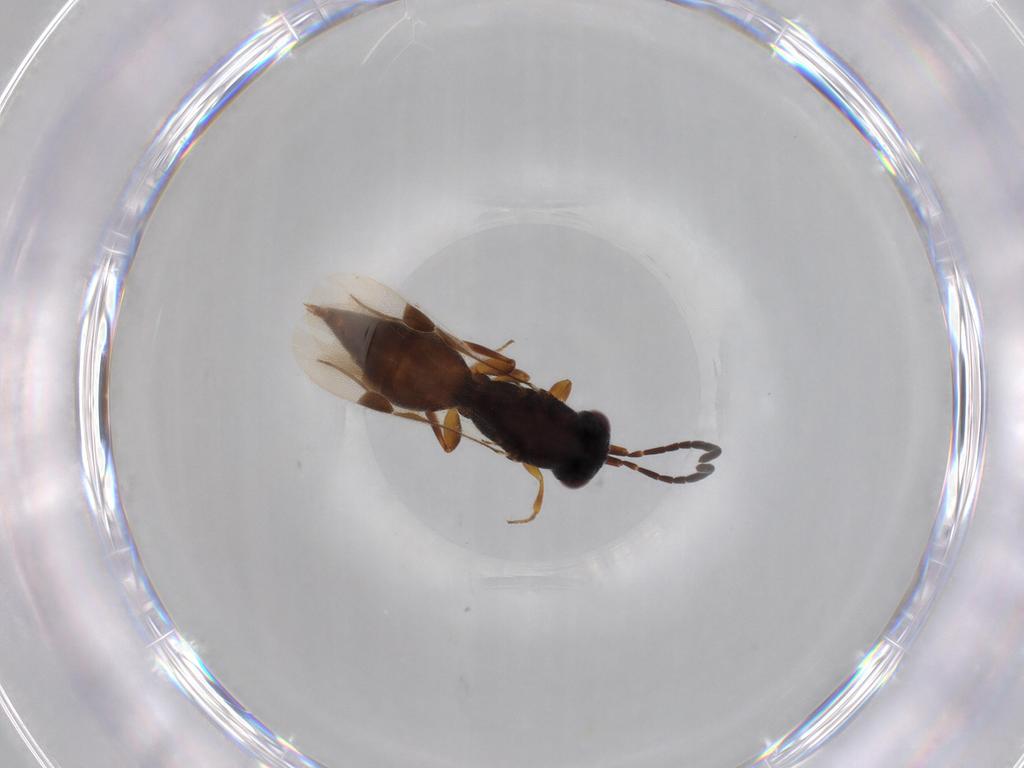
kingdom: Animalia
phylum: Arthropoda
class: Insecta
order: Hymenoptera
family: Megaspilidae
